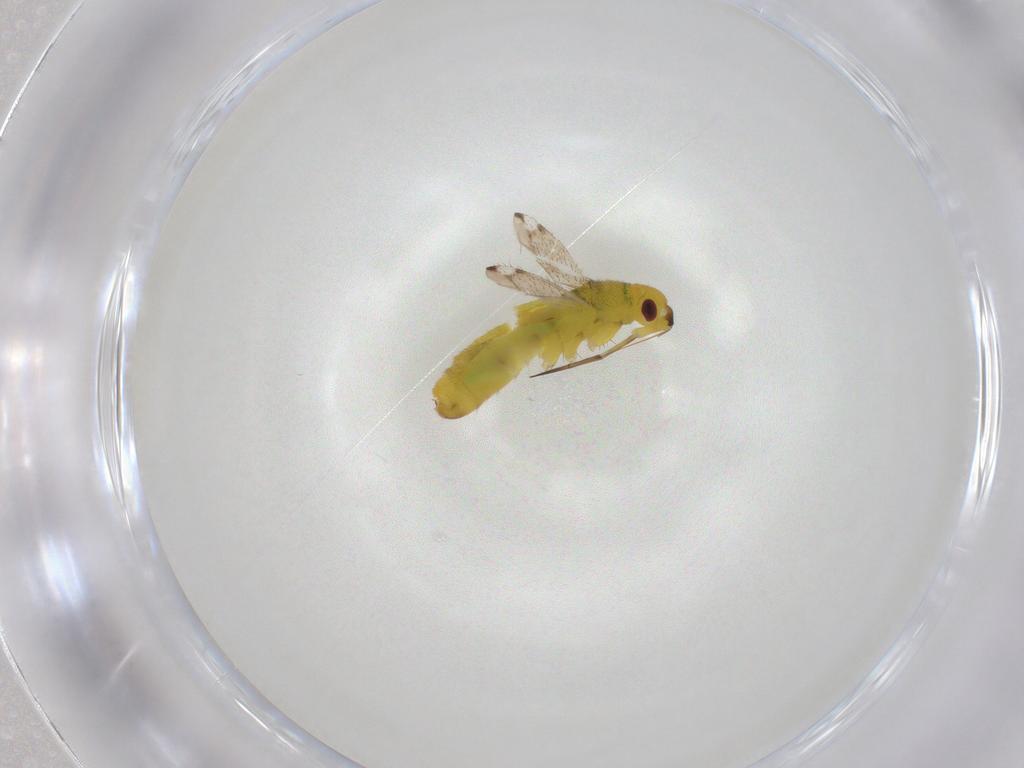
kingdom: Animalia
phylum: Arthropoda
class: Insecta
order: Hemiptera
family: Miridae
